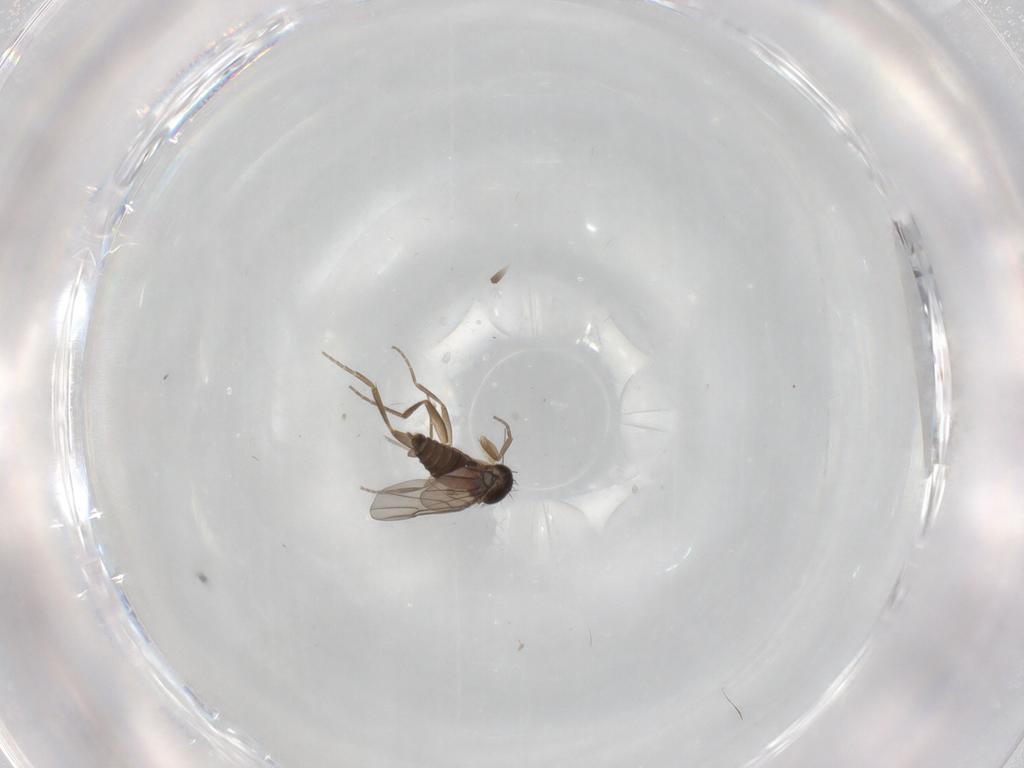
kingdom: Animalia
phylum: Arthropoda
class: Insecta
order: Diptera
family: Phoridae
